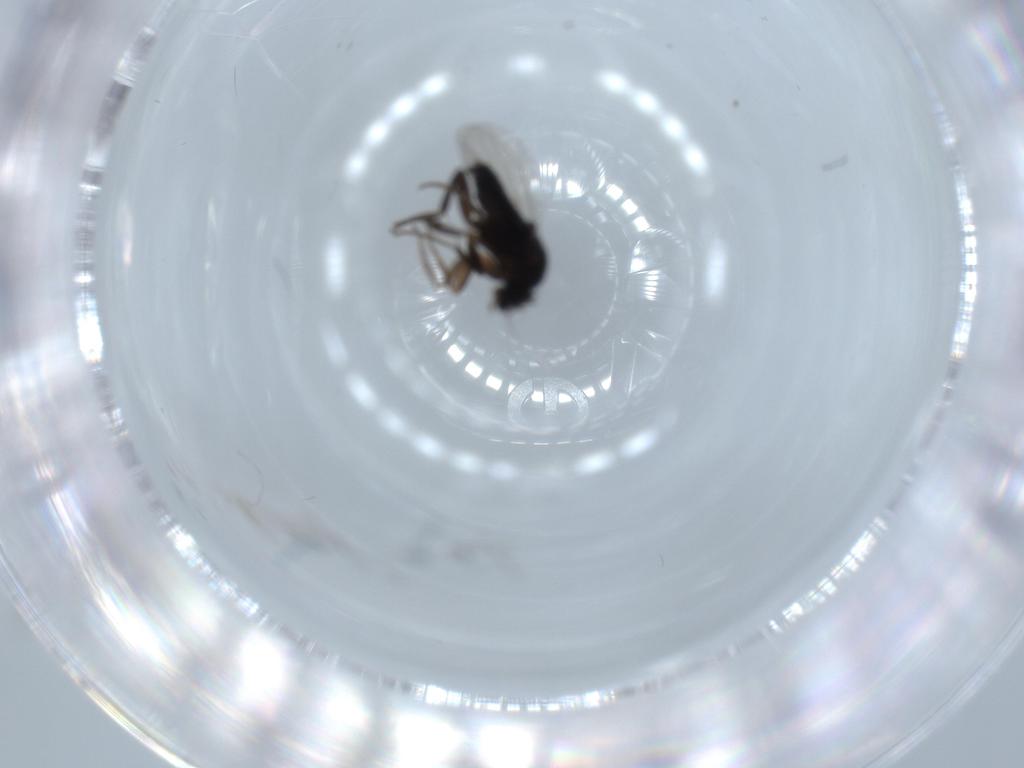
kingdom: Animalia
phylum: Arthropoda
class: Insecta
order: Diptera
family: Phoridae
